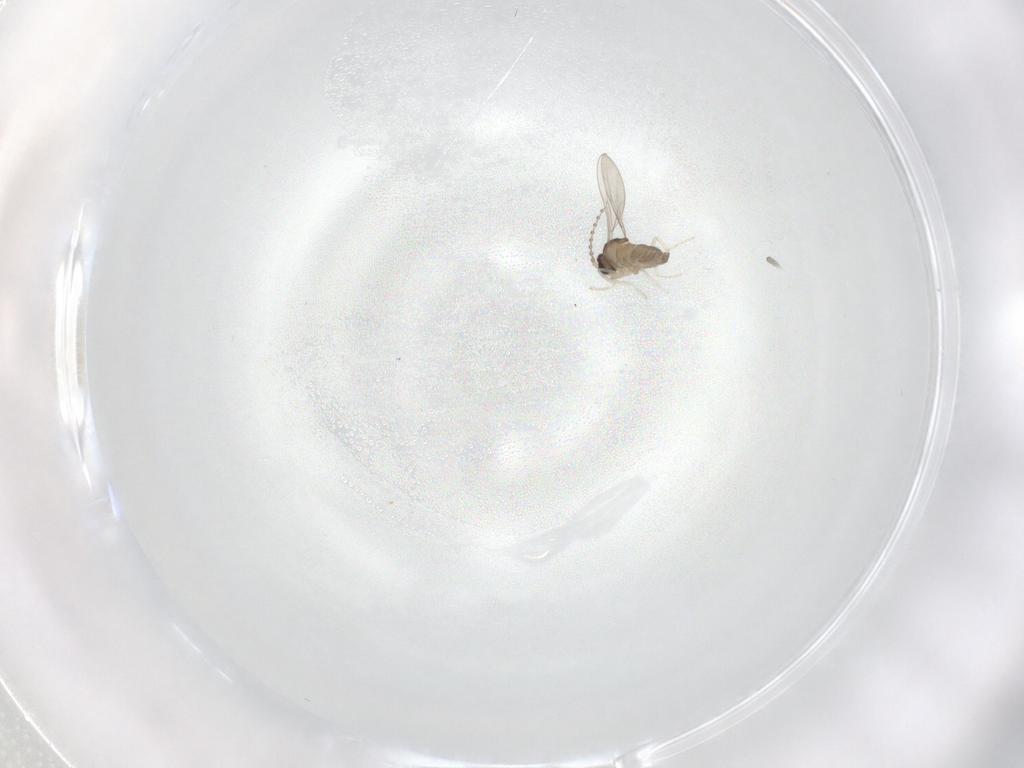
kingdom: Animalia
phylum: Arthropoda
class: Insecta
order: Diptera
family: Cecidomyiidae
